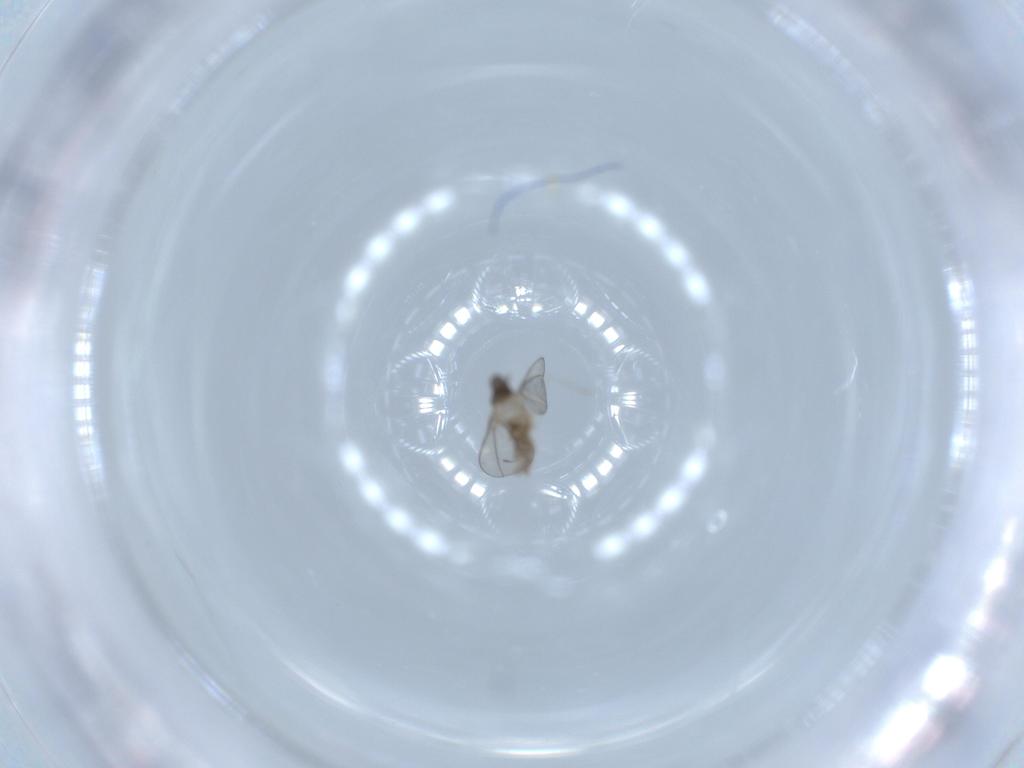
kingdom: Animalia
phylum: Arthropoda
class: Insecta
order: Diptera
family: Cecidomyiidae
